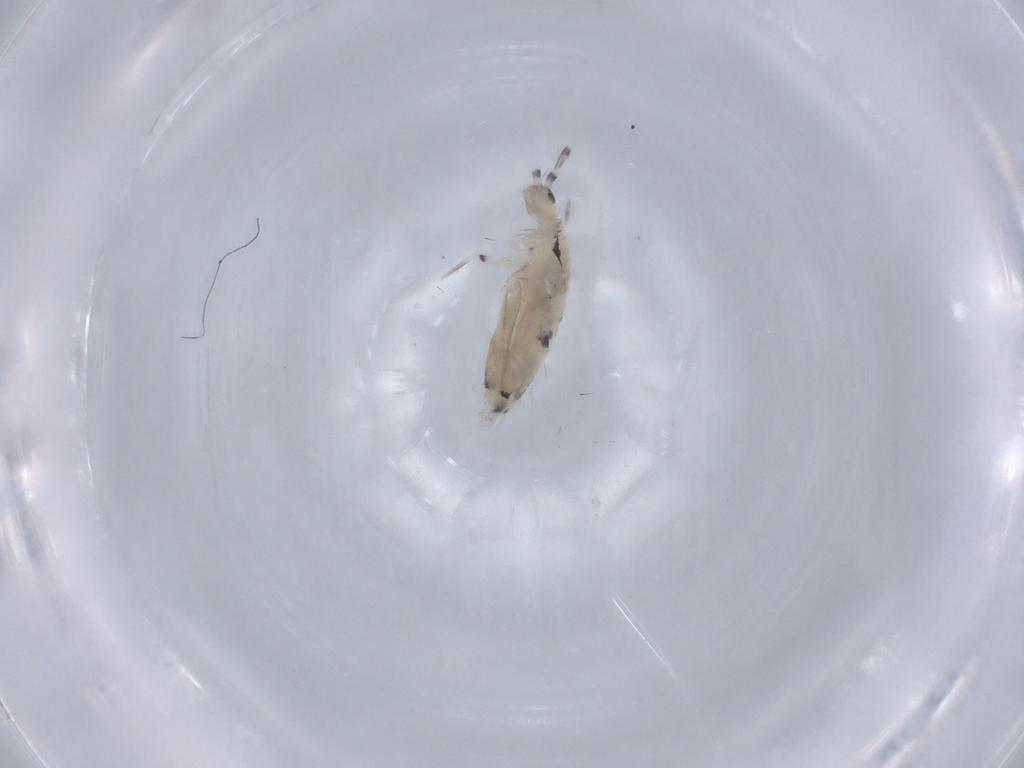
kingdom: Animalia
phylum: Arthropoda
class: Collembola
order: Poduromorpha
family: Hypogastruridae
